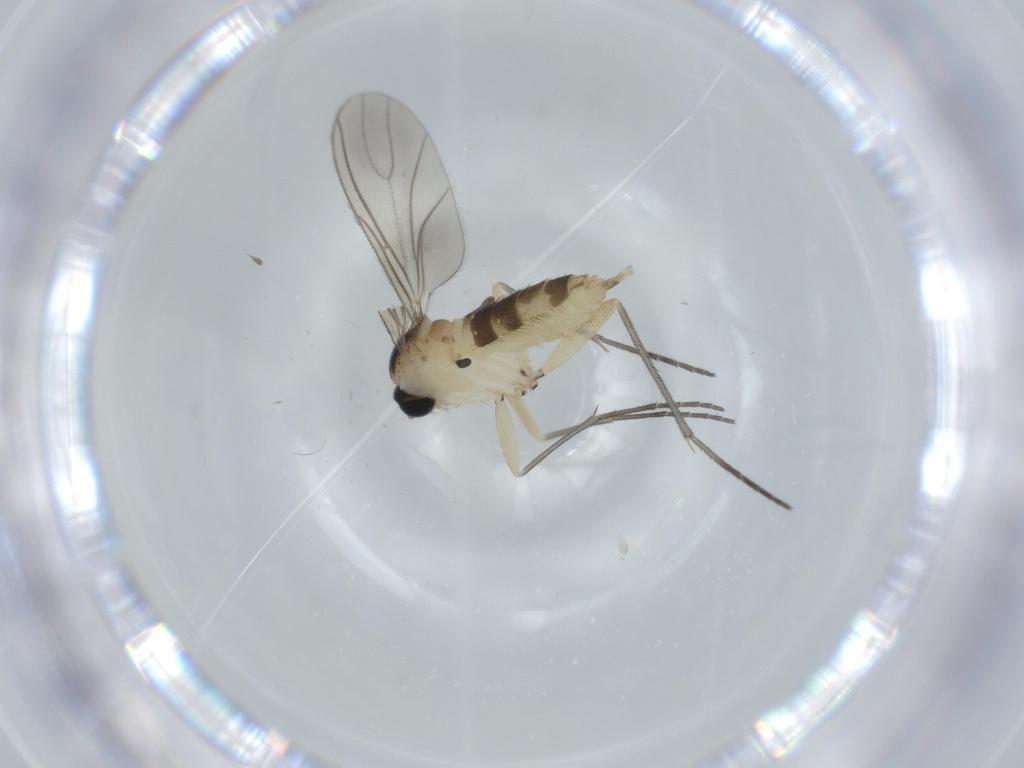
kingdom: Animalia
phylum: Arthropoda
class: Insecta
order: Diptera
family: Sciaridae
